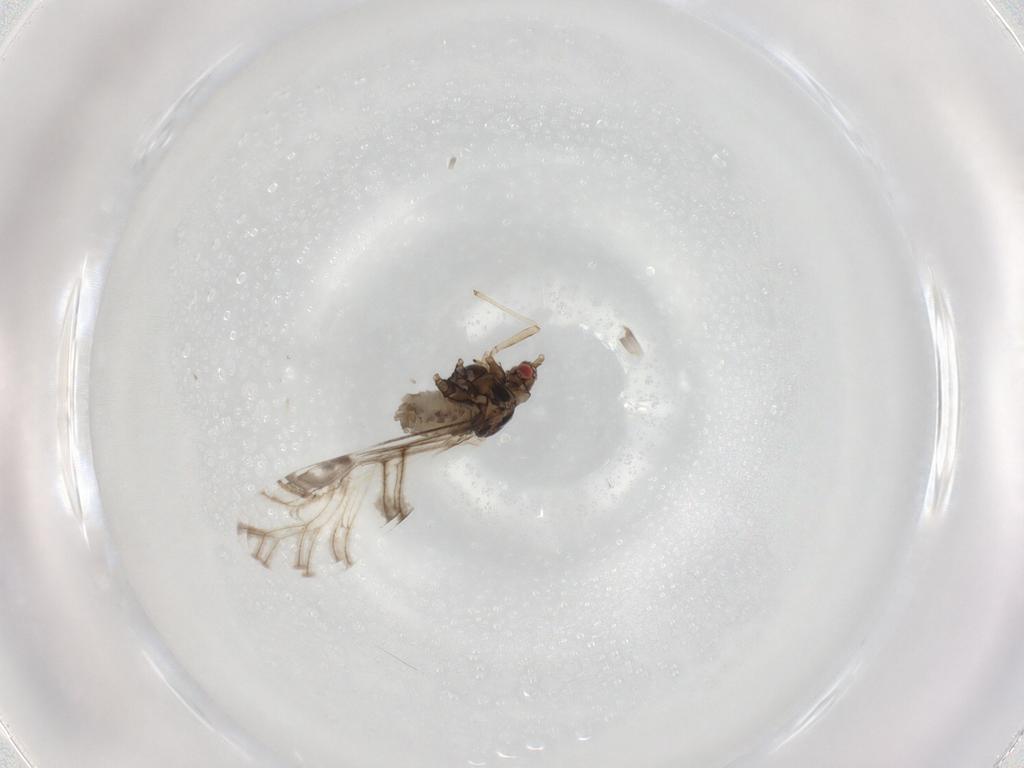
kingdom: Animalia
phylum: Arthropoda
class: Insecta
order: Hemiptera
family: Aphididae
